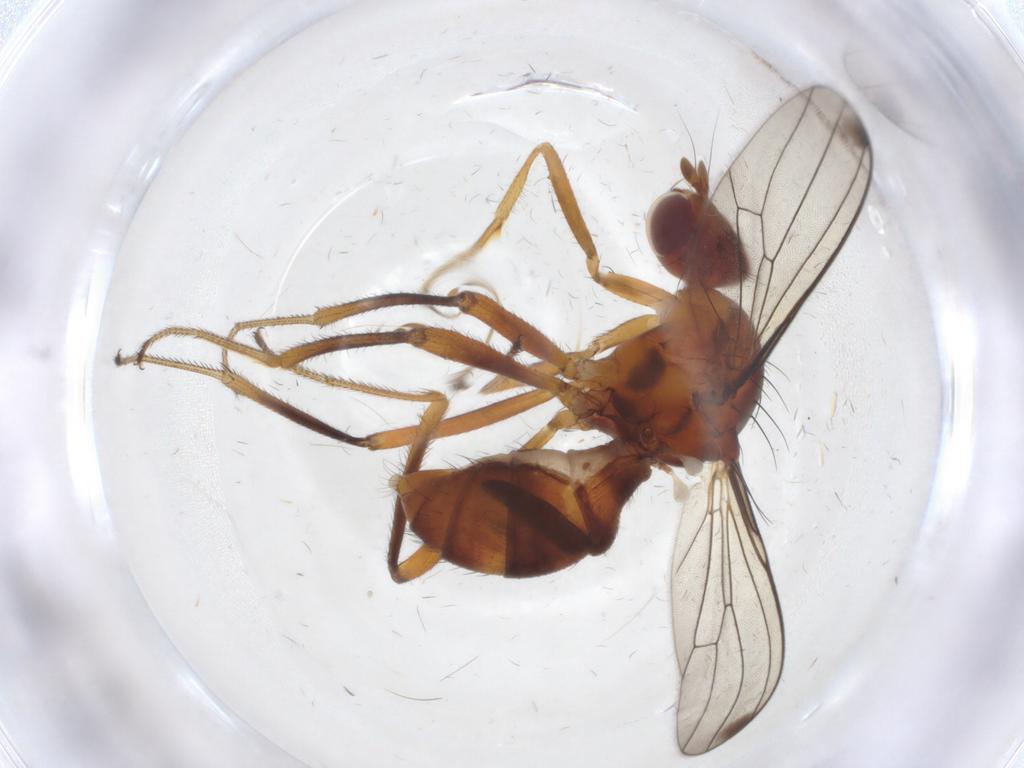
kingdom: Animalia
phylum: Arthropoda
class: Insecta
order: Diptera
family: Sepsidae
